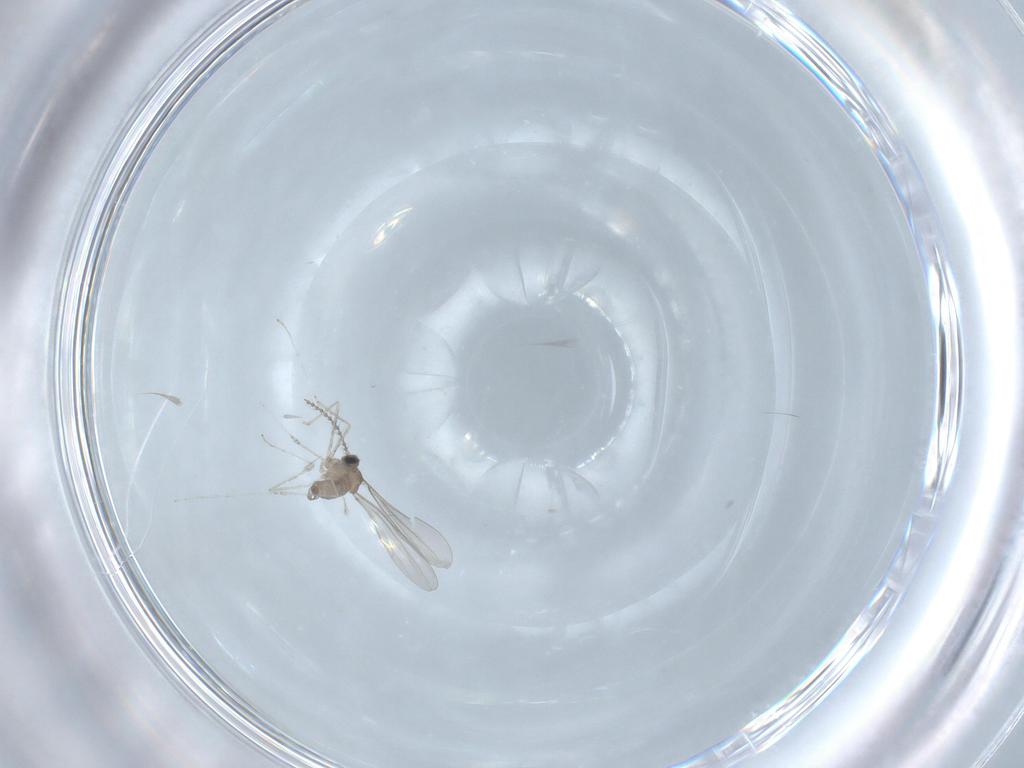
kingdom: Animalia
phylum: Arthropoda
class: Insecta
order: Diptera
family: Cecidomyiidae
